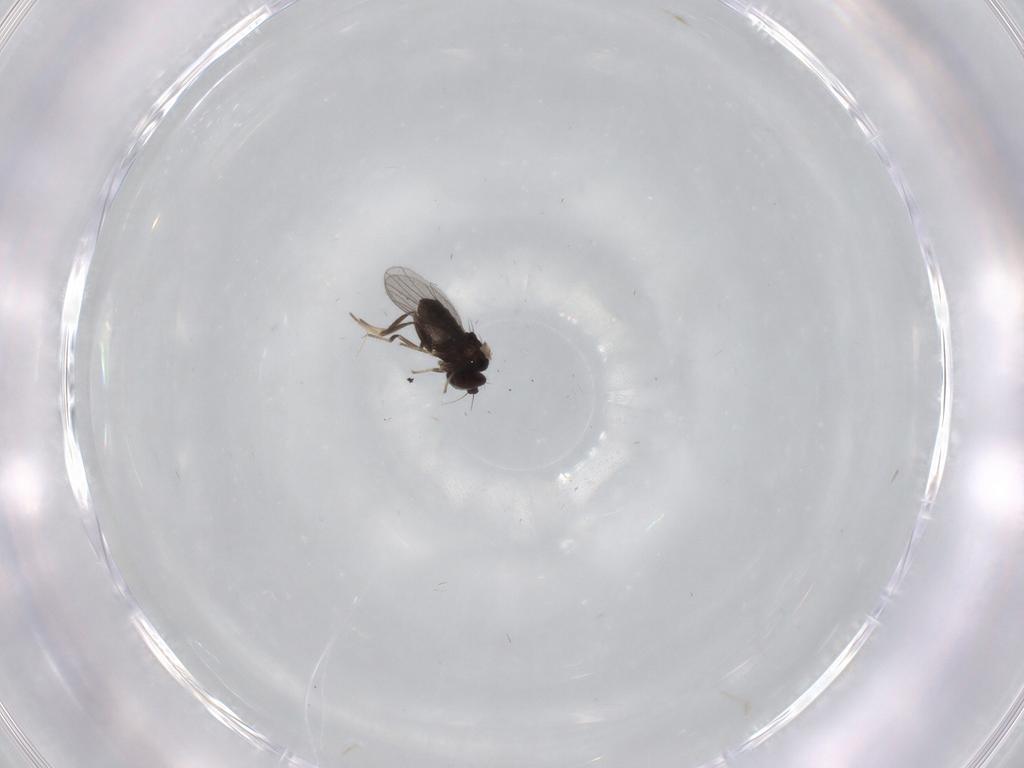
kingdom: Animalia
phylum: Arthropoda
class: Insecta
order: Diptera
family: Dolichopodidae
